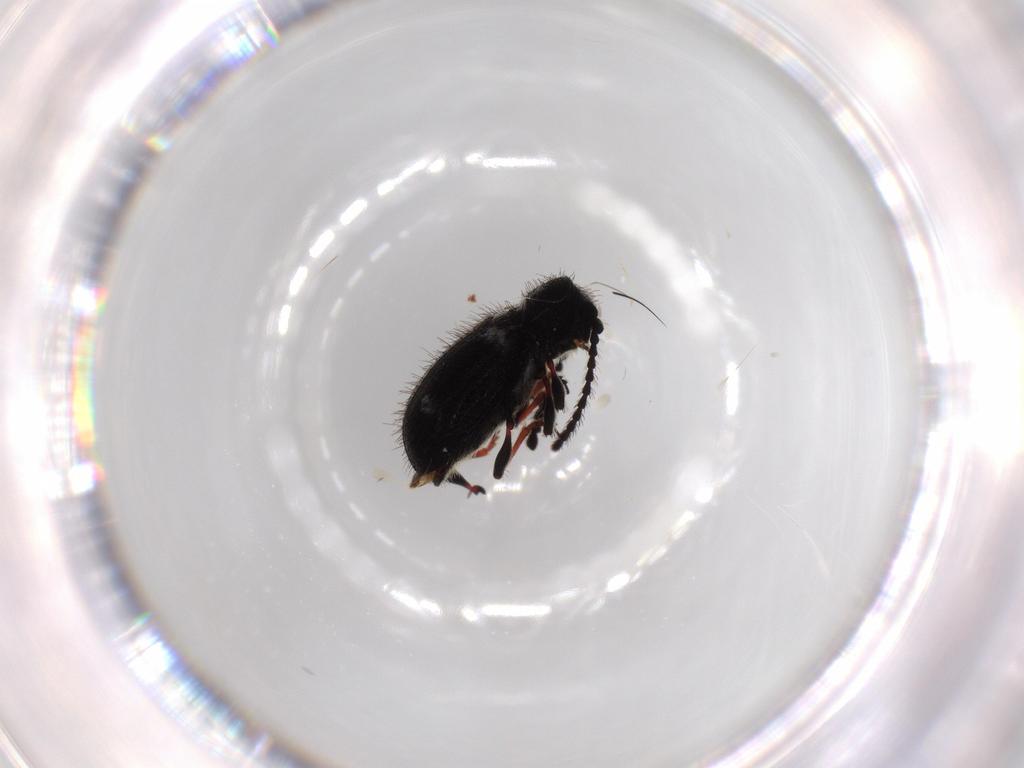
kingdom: Animalia
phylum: Arthropoda
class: Insecta
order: Coleoptera
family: Ptinidae
